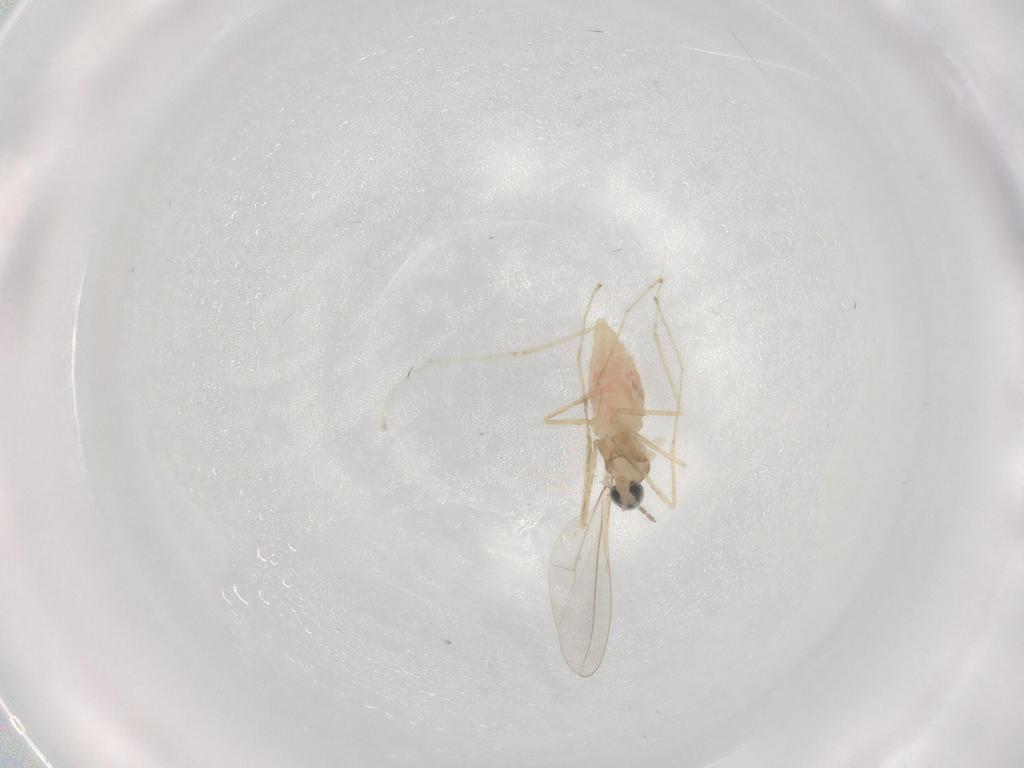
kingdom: Animalia
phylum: Arthropoda
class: Insecta
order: Diptera
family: Cecidomyiidae
